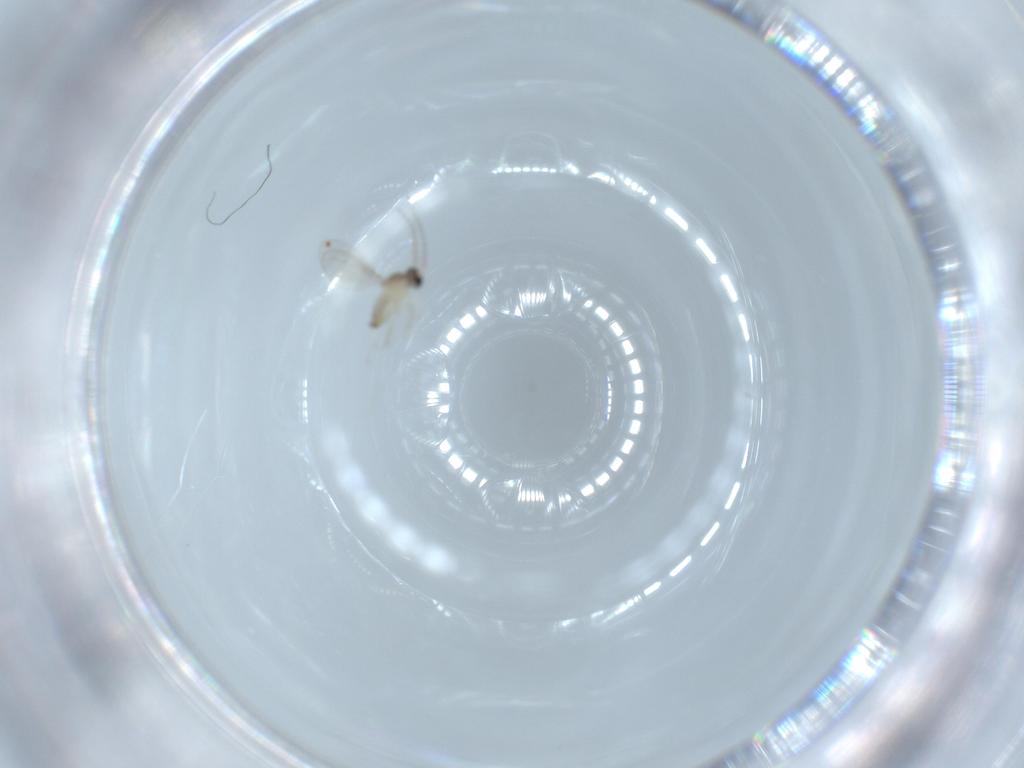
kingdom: Animalia
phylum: Arthropoda
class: Insecta
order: Diptera
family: Cecidomyiidae
